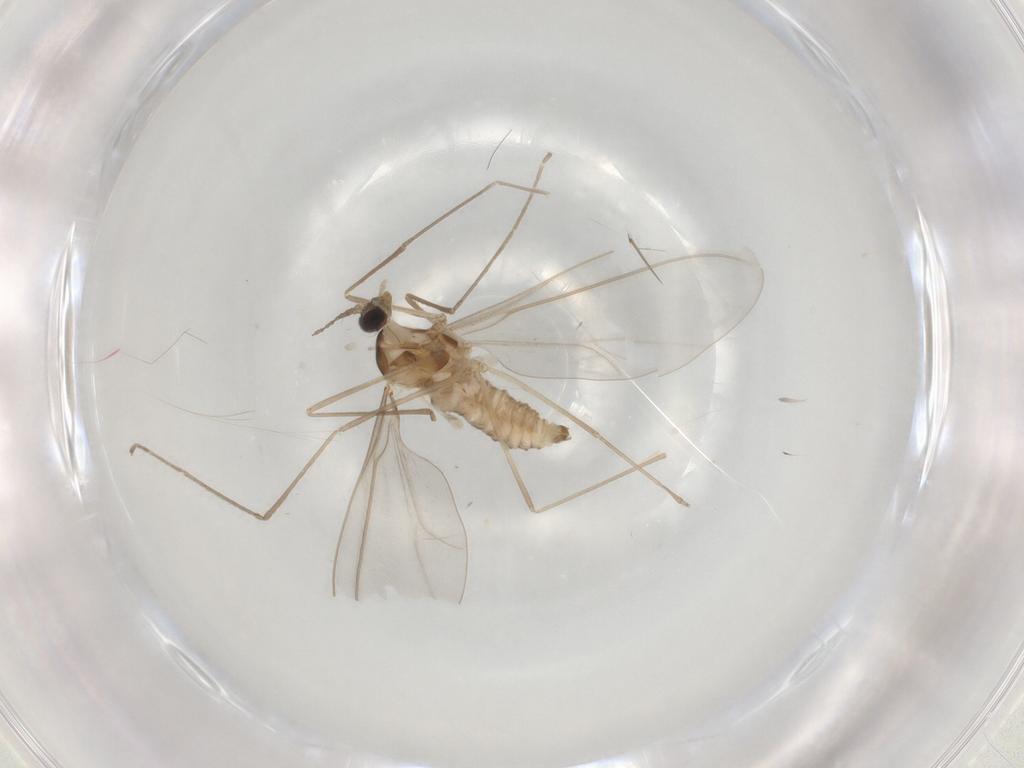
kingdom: Animalia
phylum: Arthropoda
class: Insecta
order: Diptera
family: Cecidomyiidae
